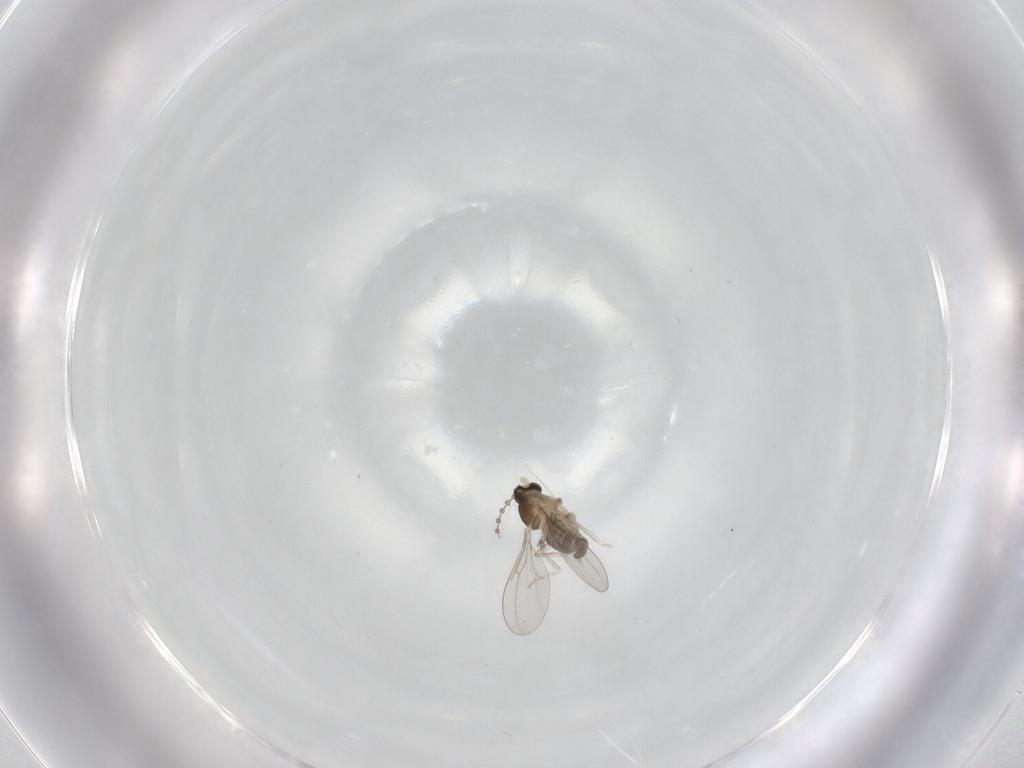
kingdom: Animalia
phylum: Arthropoda
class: Insecta
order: Diptera
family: Cecidomyiidae
